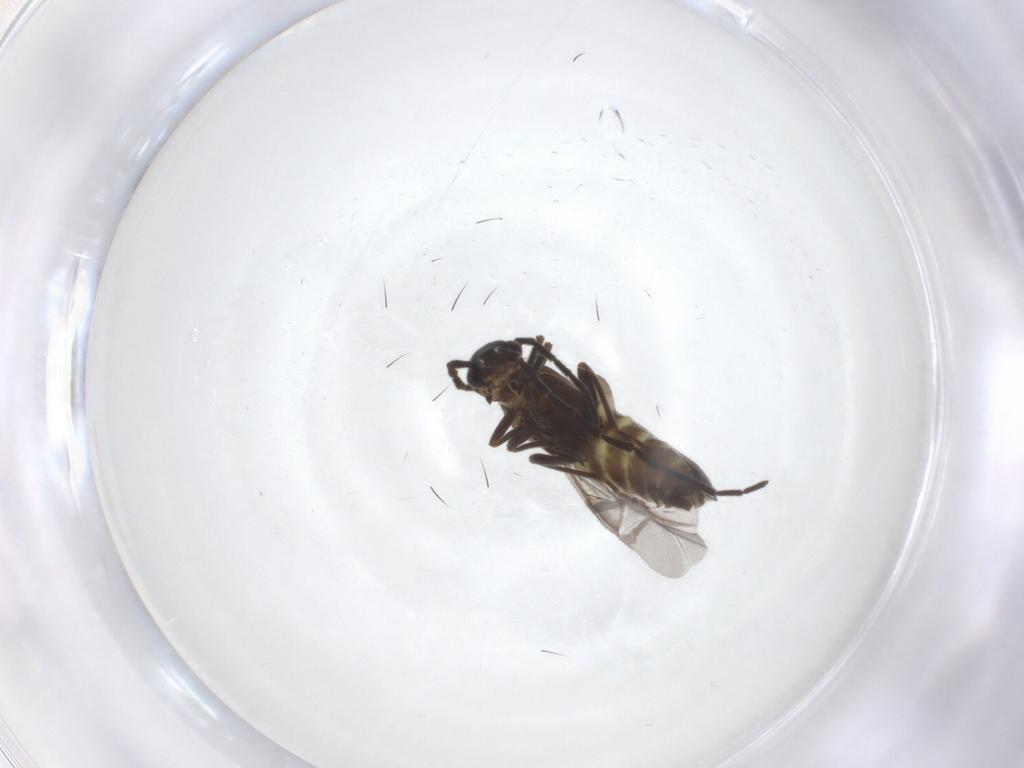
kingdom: Animalia
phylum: Arthropoda
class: Insecta
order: Coleoptera
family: Cantharidae
